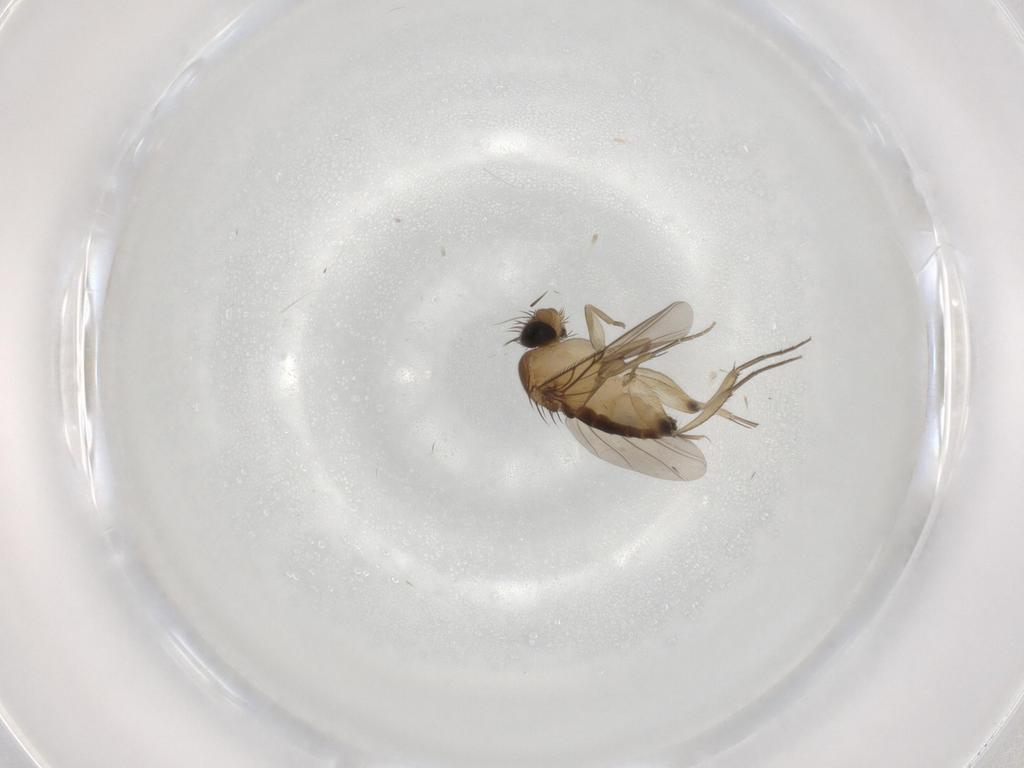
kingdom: Animalia
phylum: Arthropoda
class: Insecta
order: Diptera
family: Phoridae
